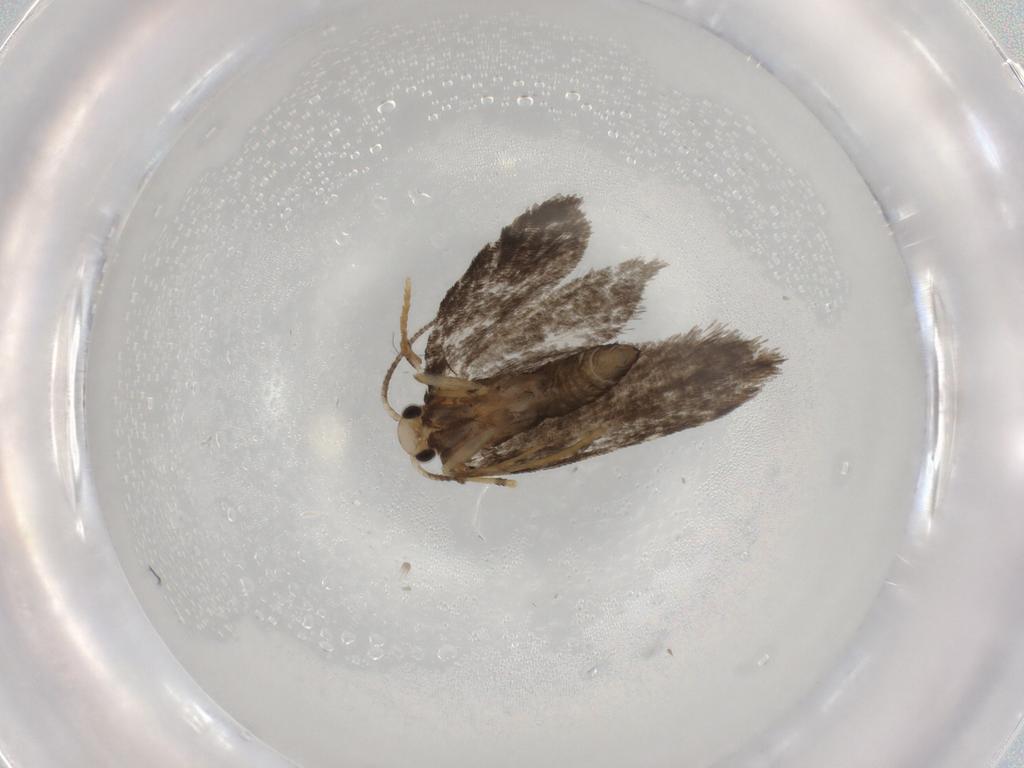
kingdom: Animalia
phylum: Arthropoda
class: Insecta
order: Lepidoptera
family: Psychidae
